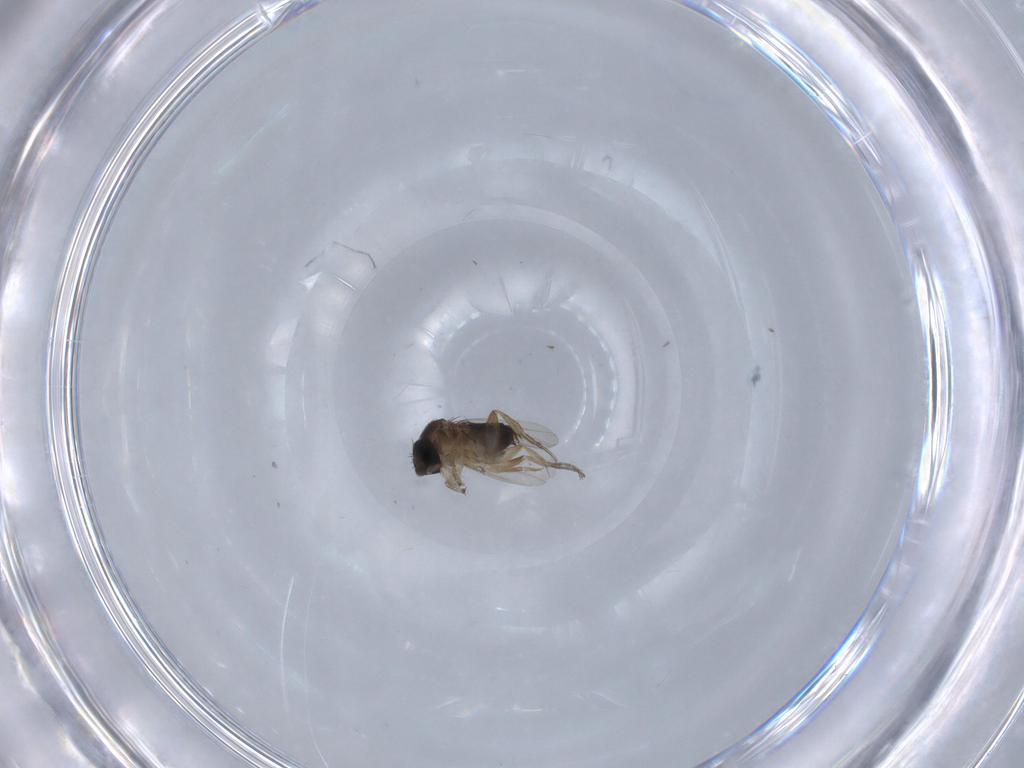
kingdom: Animalia
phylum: Arthropoda
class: Insecta
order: Diptera
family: Phoridae
